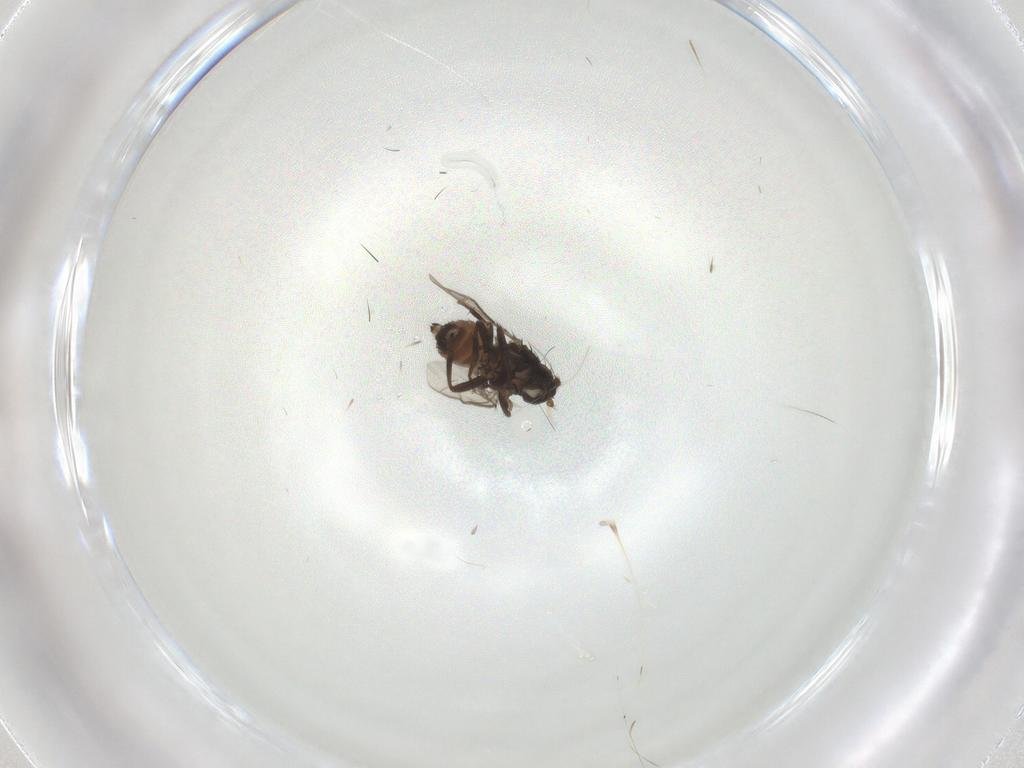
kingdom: Animalia
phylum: Arthropoda
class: Insecta
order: Diptera
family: Sphaeroceridae
